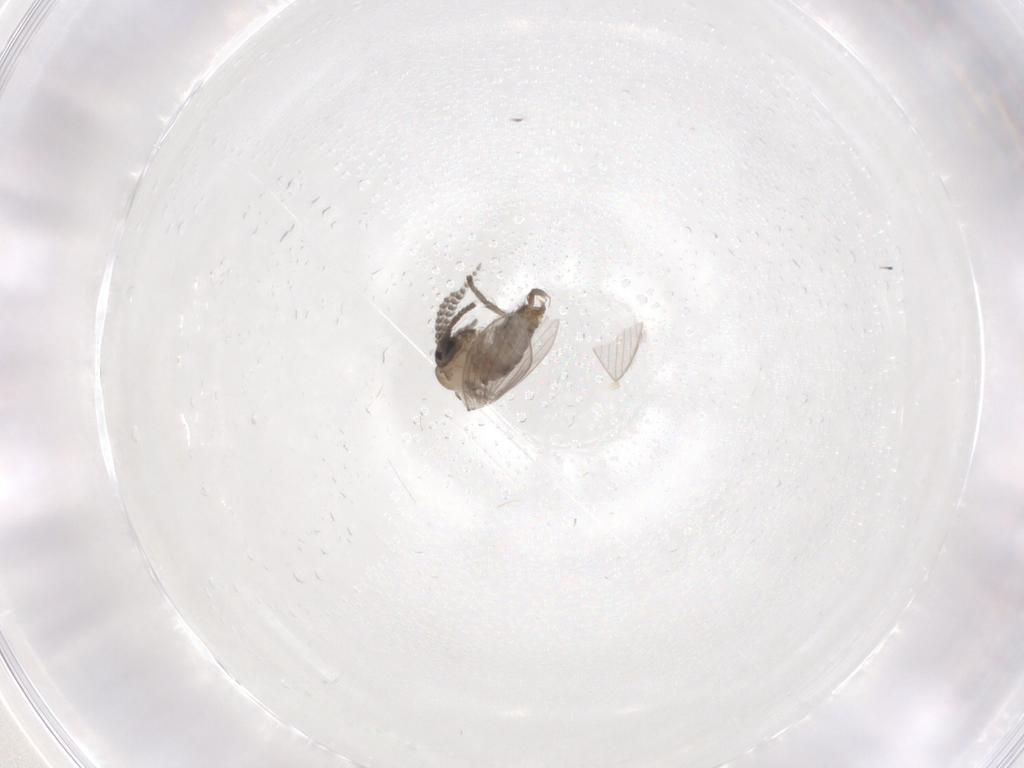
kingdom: Animalia
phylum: Arthropoda
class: Insecta
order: Diptera
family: Psychodidae
